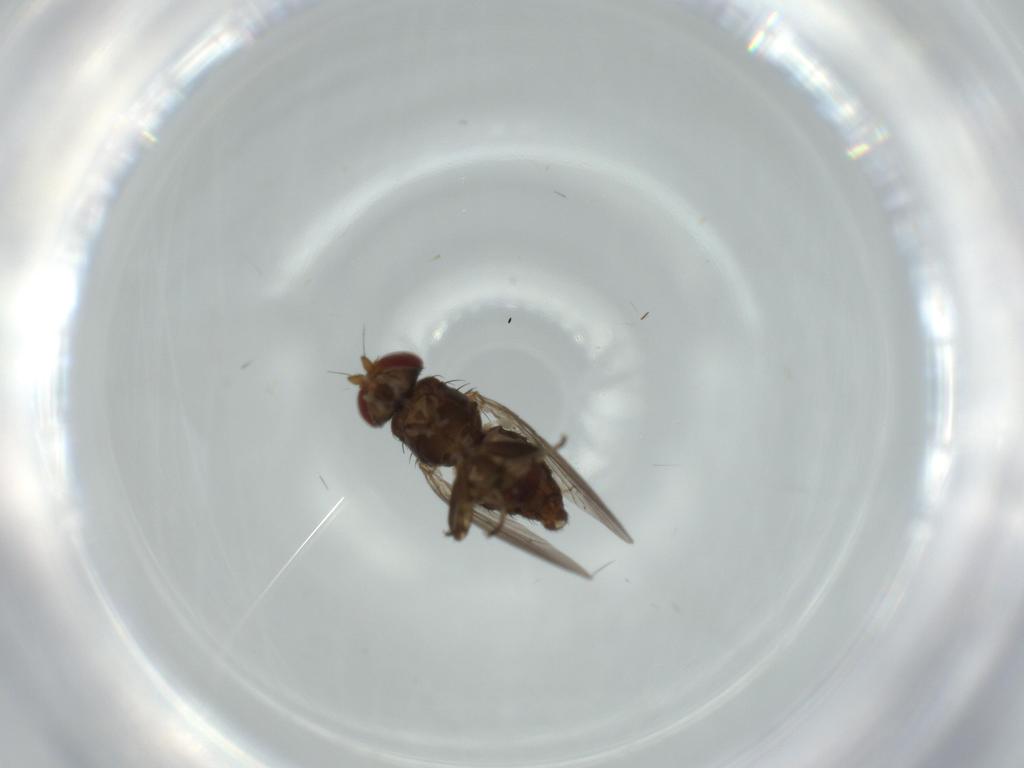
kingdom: Animalia
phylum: Arthropoda
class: Insecta
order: Diptera
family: Heleomyzidae
